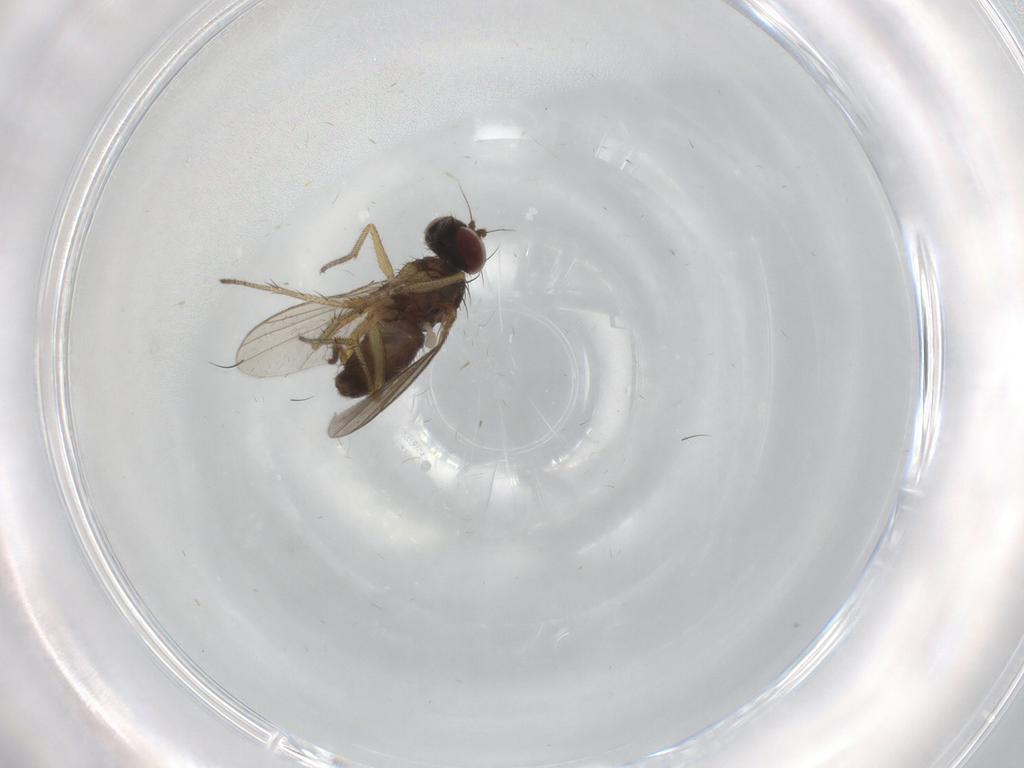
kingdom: Animalia
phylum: Arthropoda
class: Insecta
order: Diptera
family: Dolichopodidae
